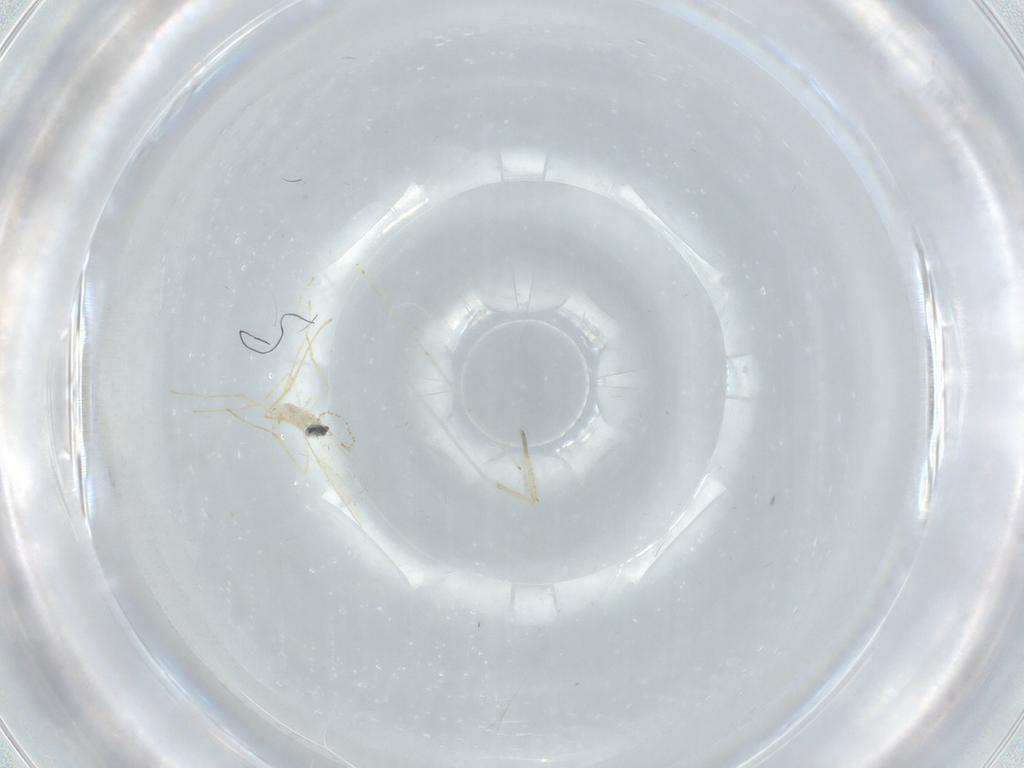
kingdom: Animalia
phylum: Arthropoda
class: Insecta
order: Diptera
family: Cecidomyiidae
